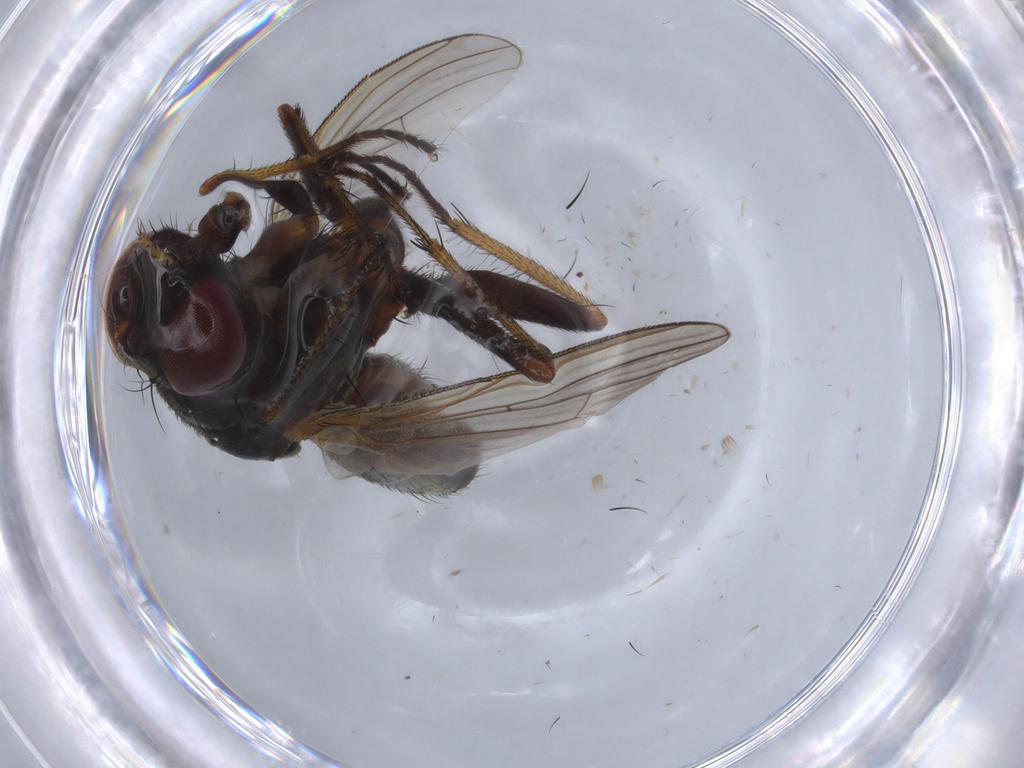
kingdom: Animalia
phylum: Arthropoda
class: Insecta
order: Diptera
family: Muscidae
